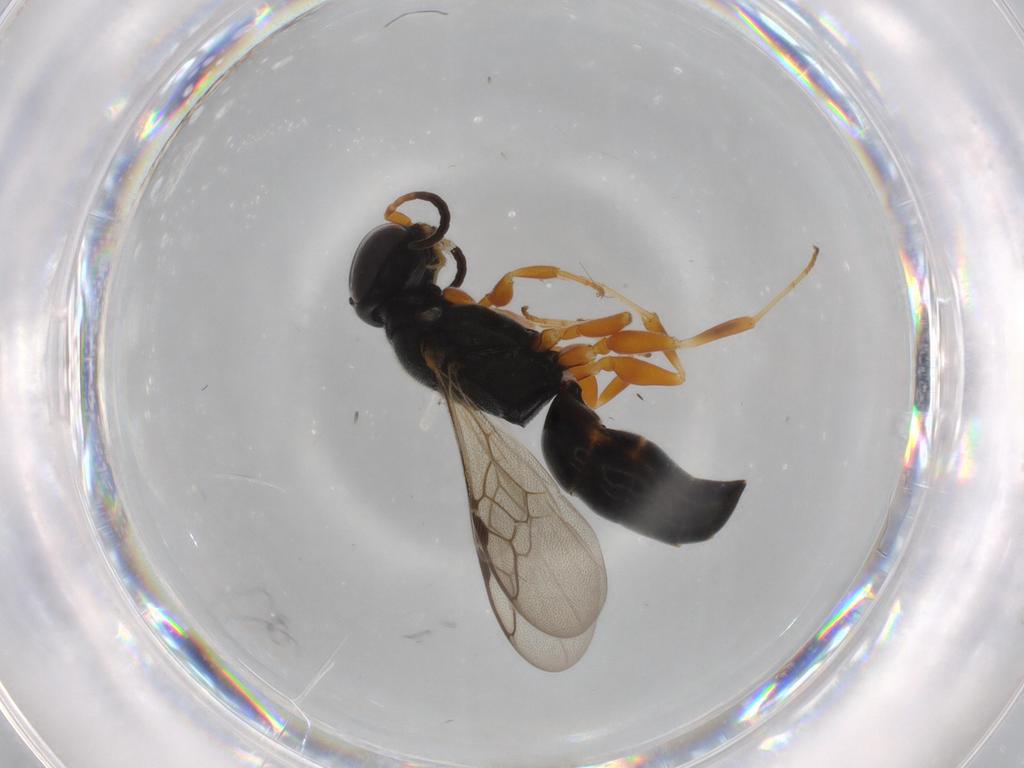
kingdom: Animalia
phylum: Arthropoda
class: Insecta
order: Hymenoptera
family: Crabronidae
